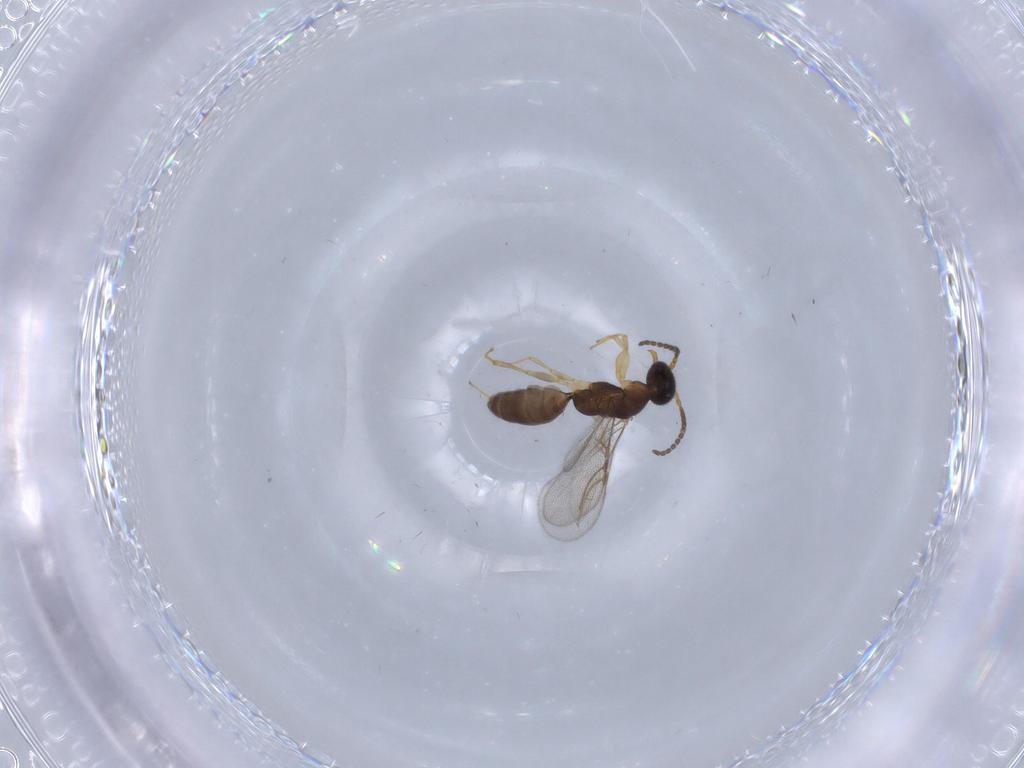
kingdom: Animalia
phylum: Arthropoda
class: Insecta
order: Hymenoptera
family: Bethylidae
